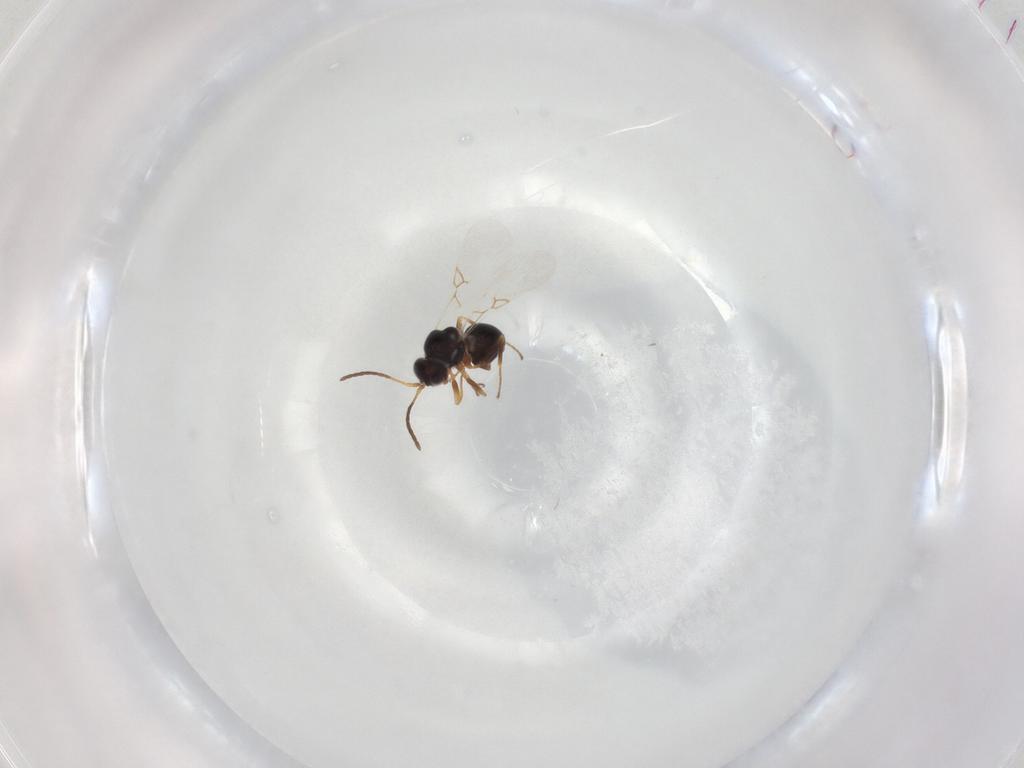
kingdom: Animalia
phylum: Arthropoda
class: Insecta
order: Hymenoptera
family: Figitidae
